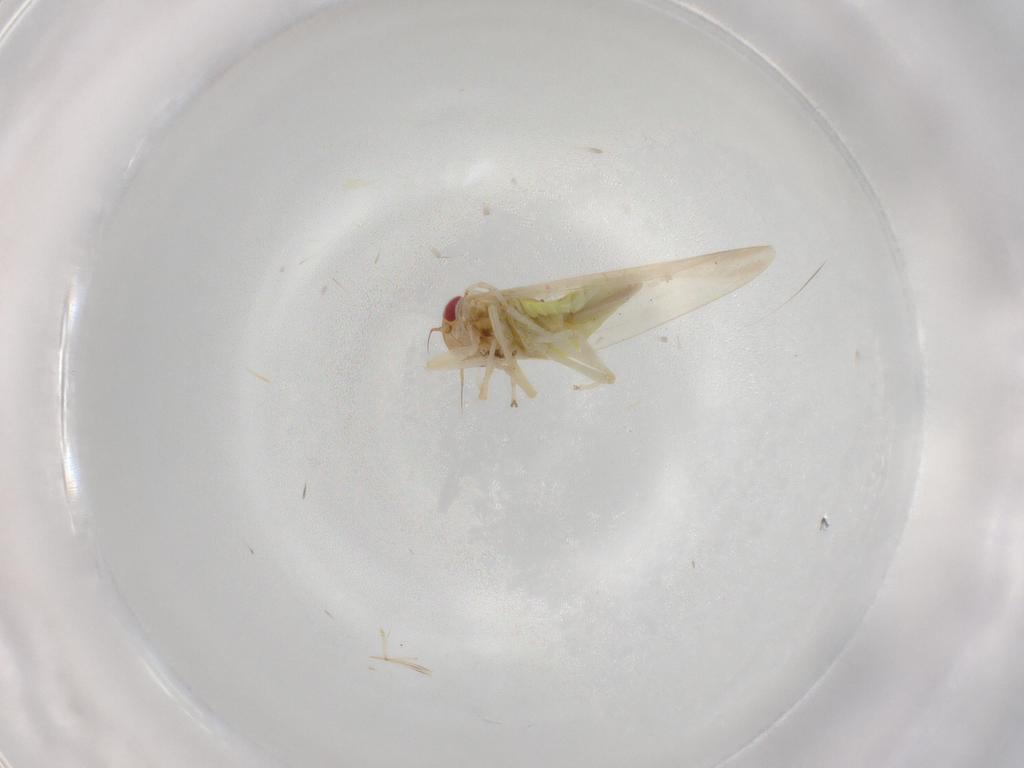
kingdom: Animalia
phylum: Arthropoda
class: Insecta
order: Hemiptera
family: Cicadellidae
